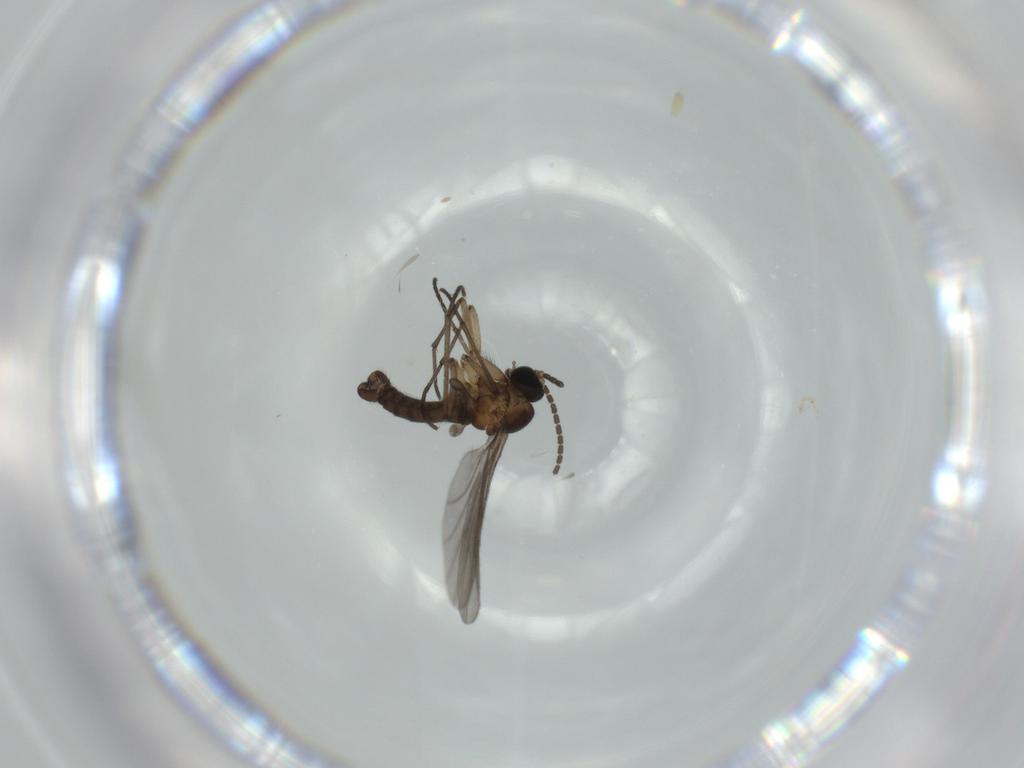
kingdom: Animalia
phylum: Arthropoda
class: Insecta
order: Diptera
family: Sciaridae
